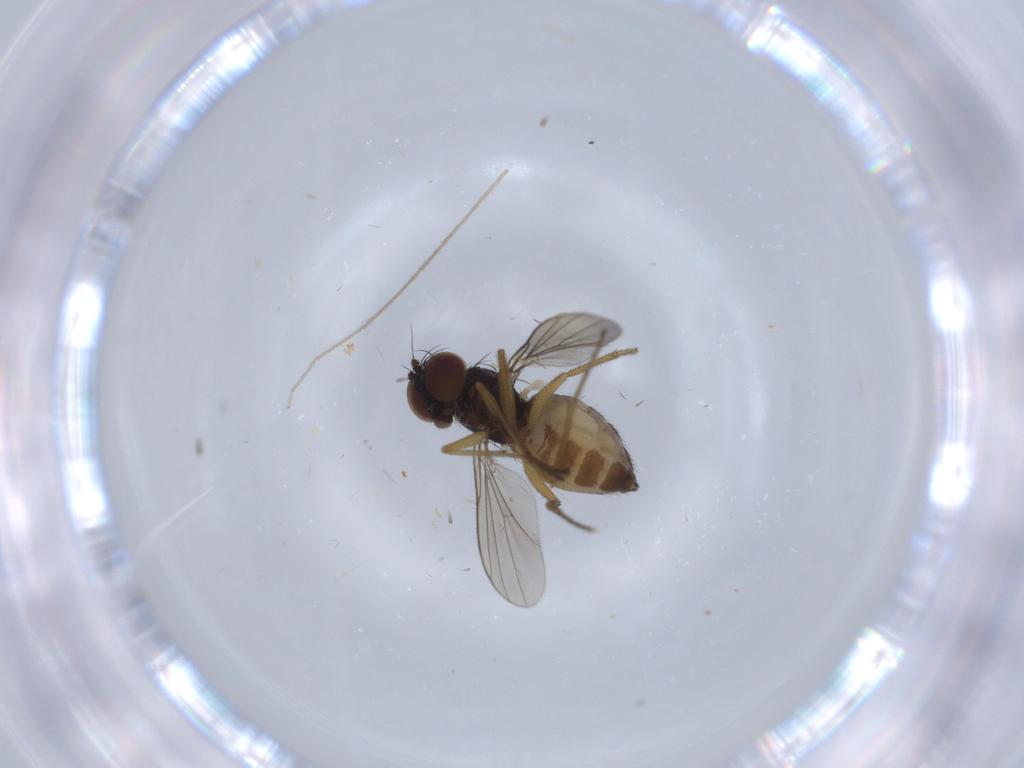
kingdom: Animalia
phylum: Arthropoda
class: Insecta
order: Diptera
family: Dolichopodidae
